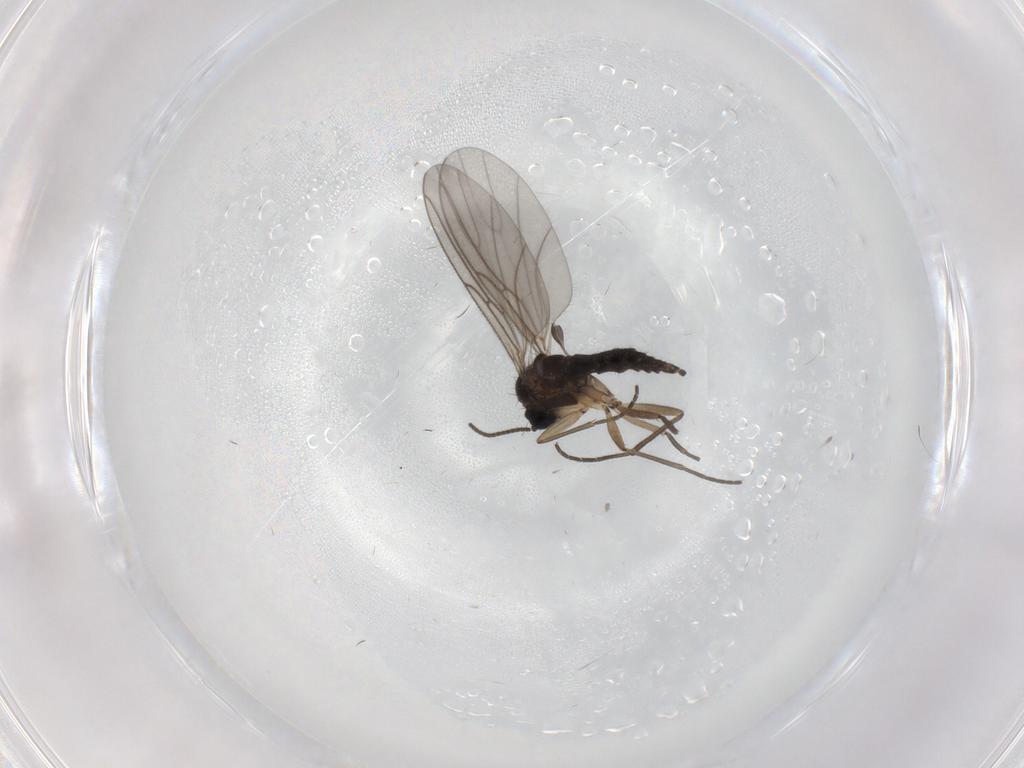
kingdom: Animalia
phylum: Arthropoda
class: Insecta
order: Diptera
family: Sciaridae
